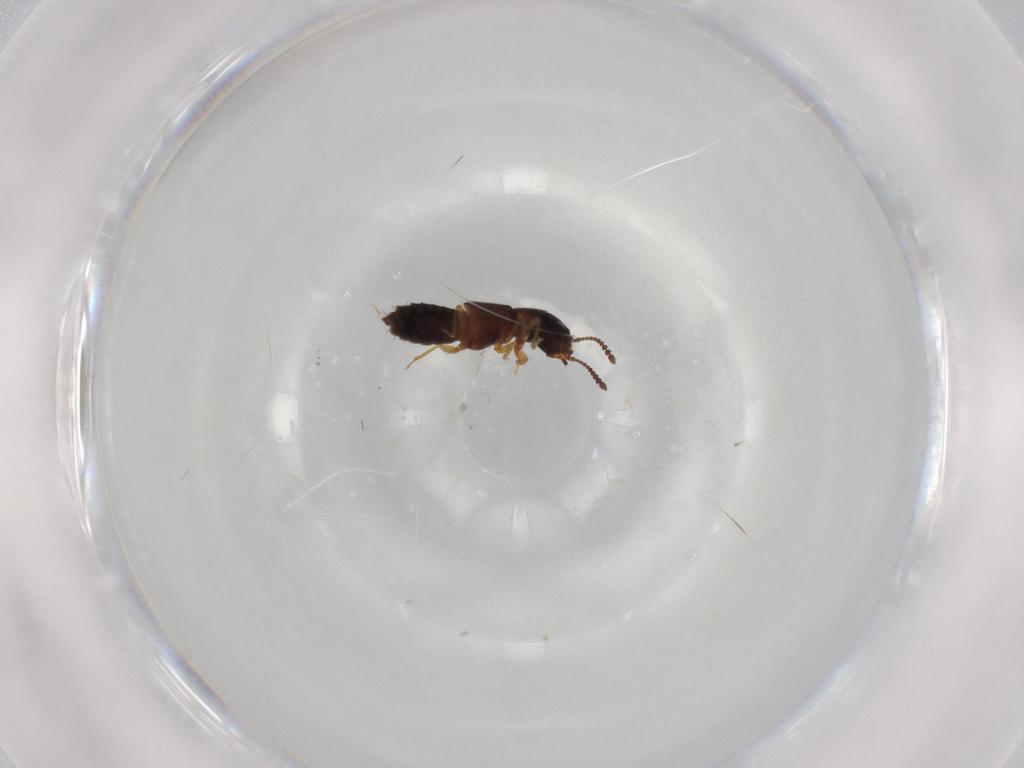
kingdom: Animalia
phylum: Arthropoda
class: Insecta
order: Coleoptera
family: Staphylinidae
